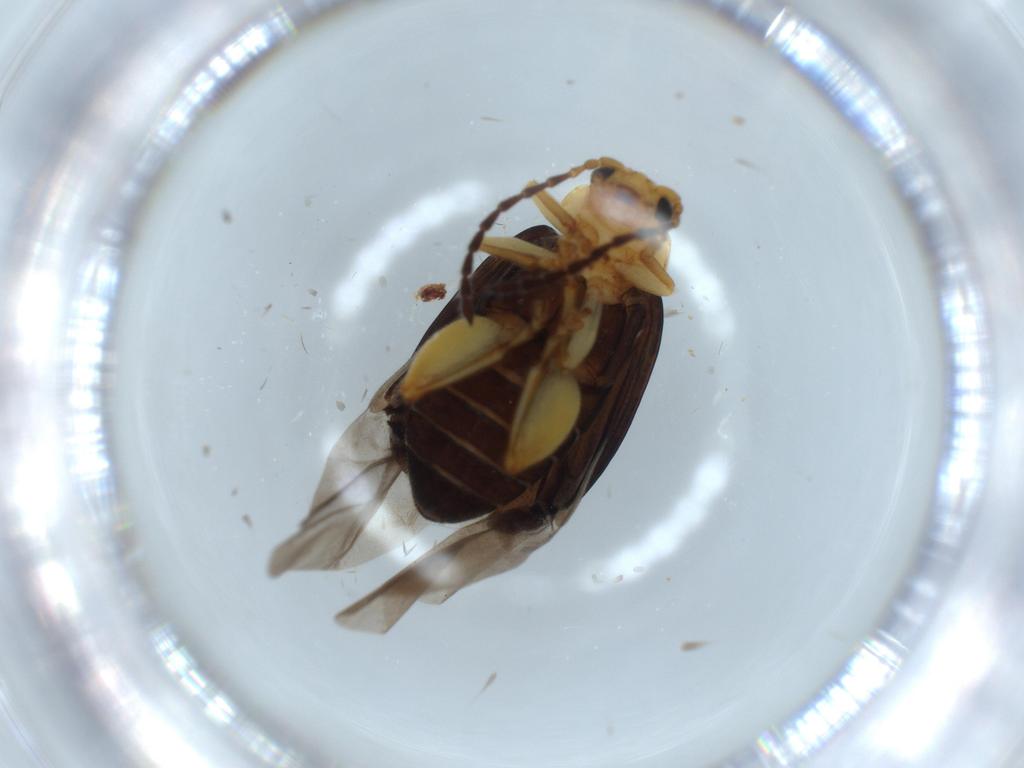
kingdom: Animalia
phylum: Arthropoda
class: Insecta
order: Coleoptera
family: Chrysomelidae
